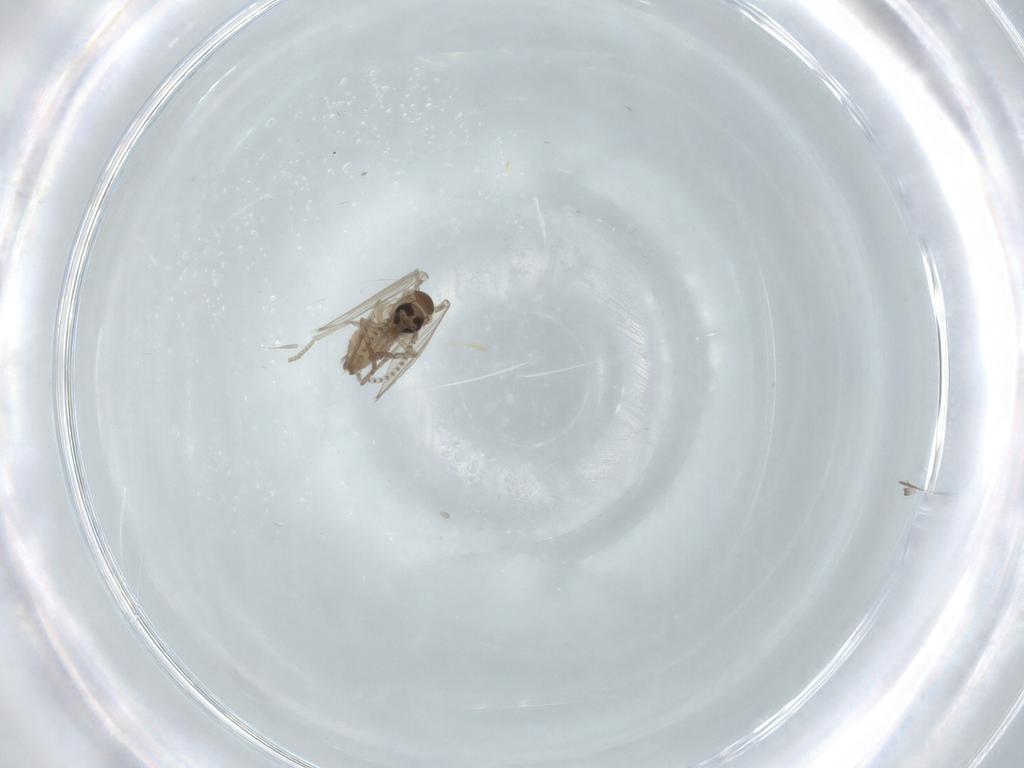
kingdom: Animalia
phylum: Arthropoda
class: Insecta
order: Diptera
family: Psychodidae
